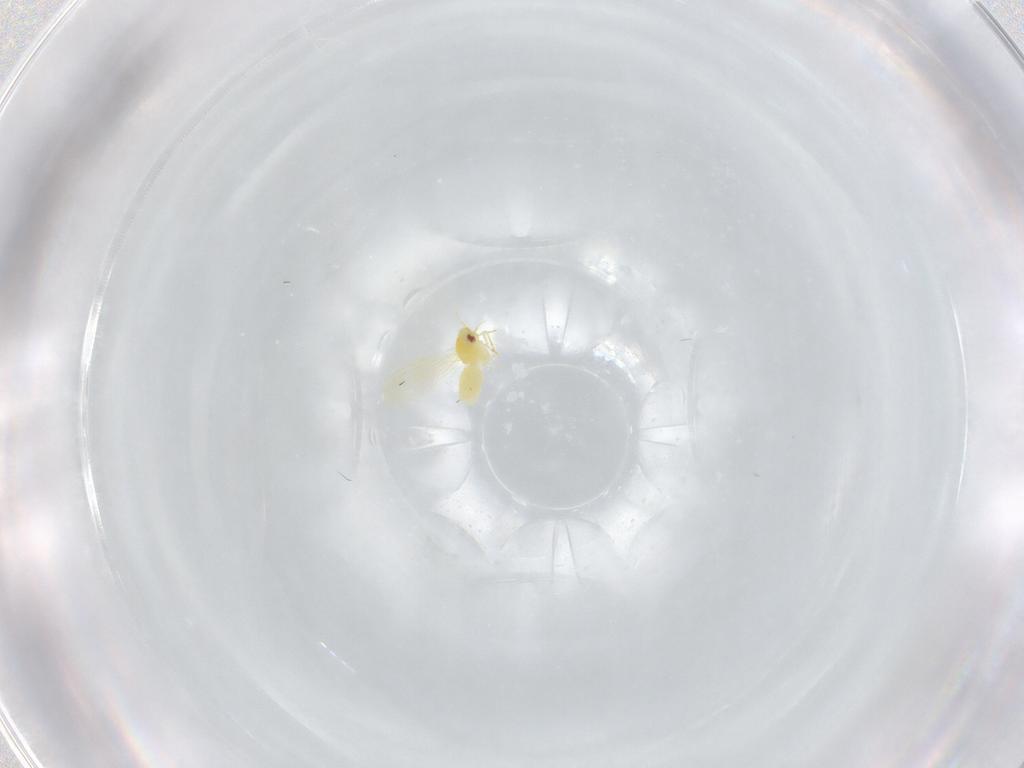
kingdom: Animalia
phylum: Arthropoda
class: Insecta
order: Hemiptera
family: Aleyrodidae
